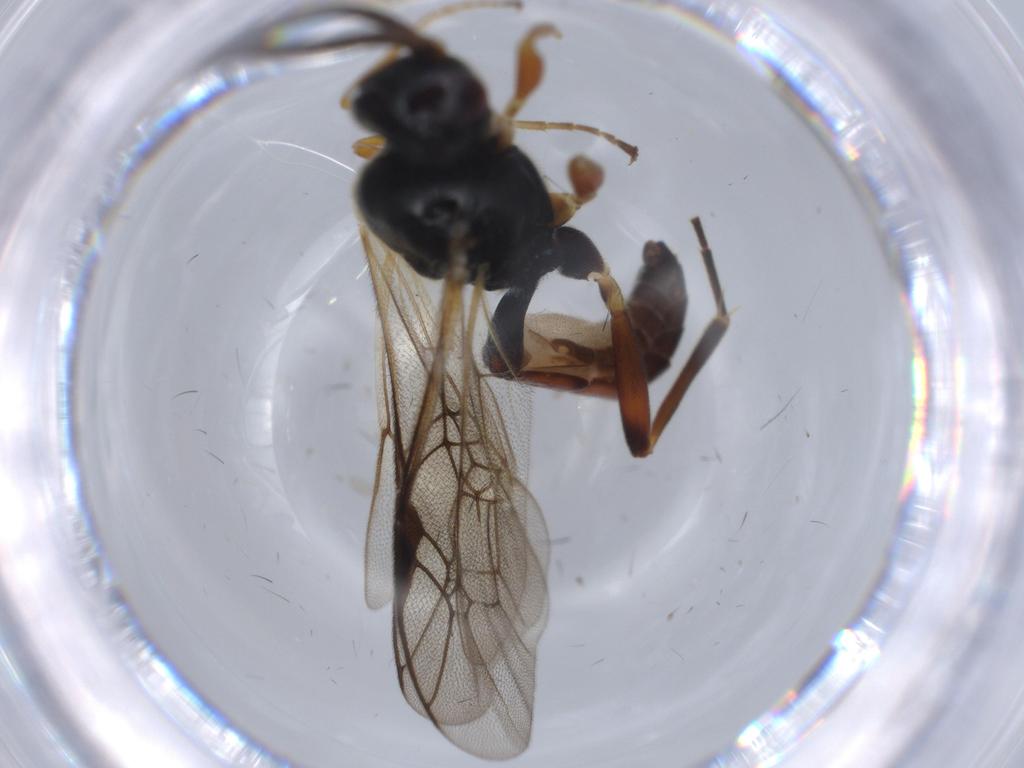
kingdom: Animalia
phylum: Arthropoda
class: Insecta
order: Hymenoptera
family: Ichneumonidae
